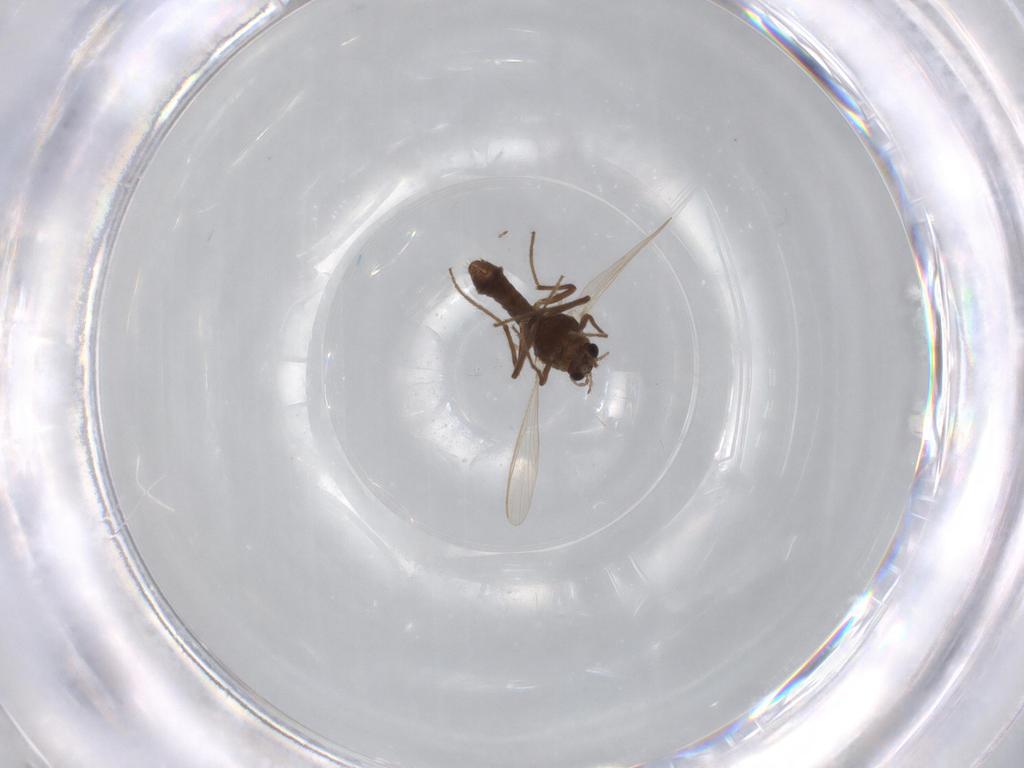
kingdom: Animalia
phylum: Arthropoda
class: Insecta
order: Diptera
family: Chironomidae
